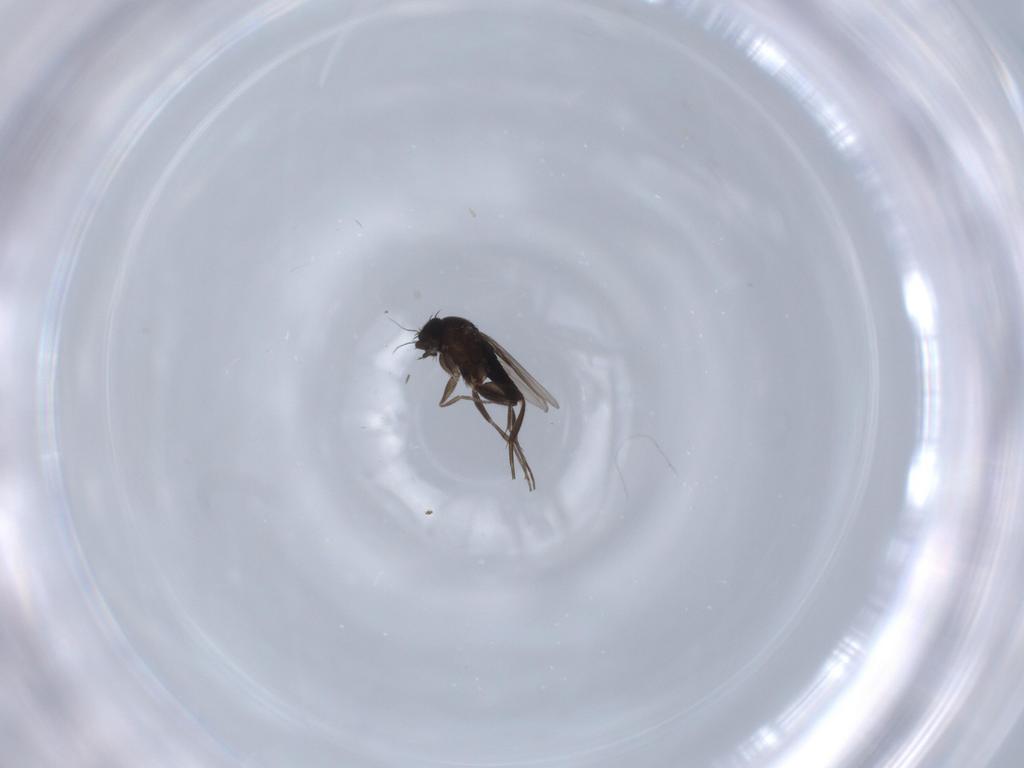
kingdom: Animalia
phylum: Arthropoda
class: Insecta
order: Diptera
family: Phoridae
